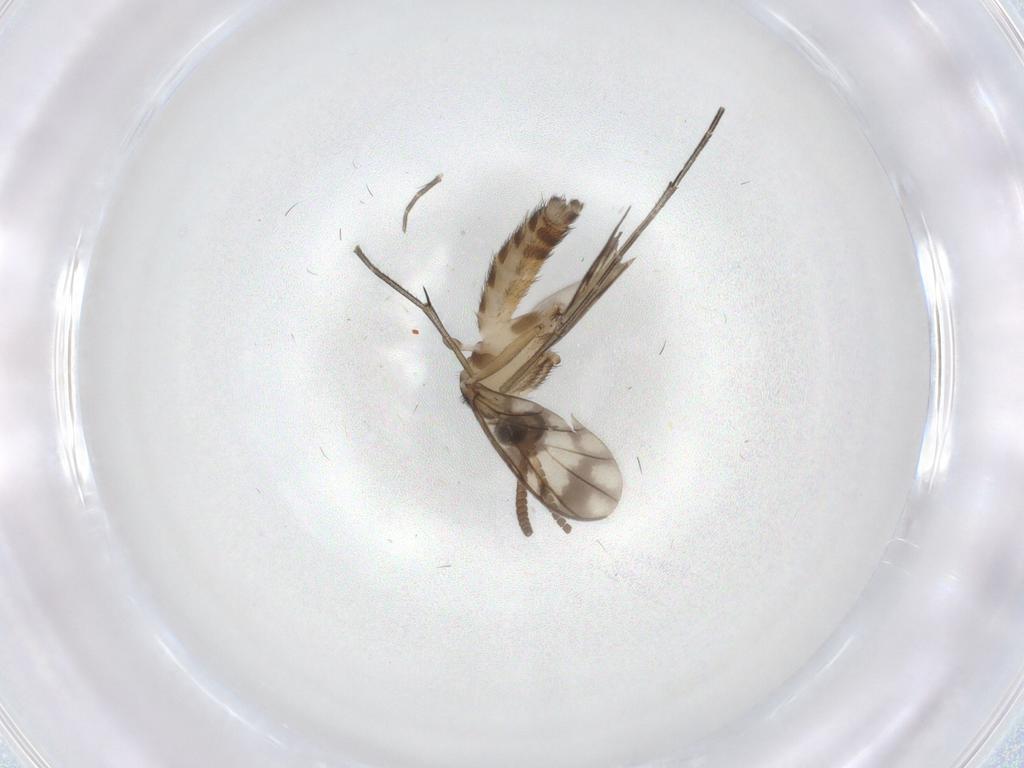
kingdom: Animalia
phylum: Arthropoda
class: Insecta
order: Diptera
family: Keroplatidae
